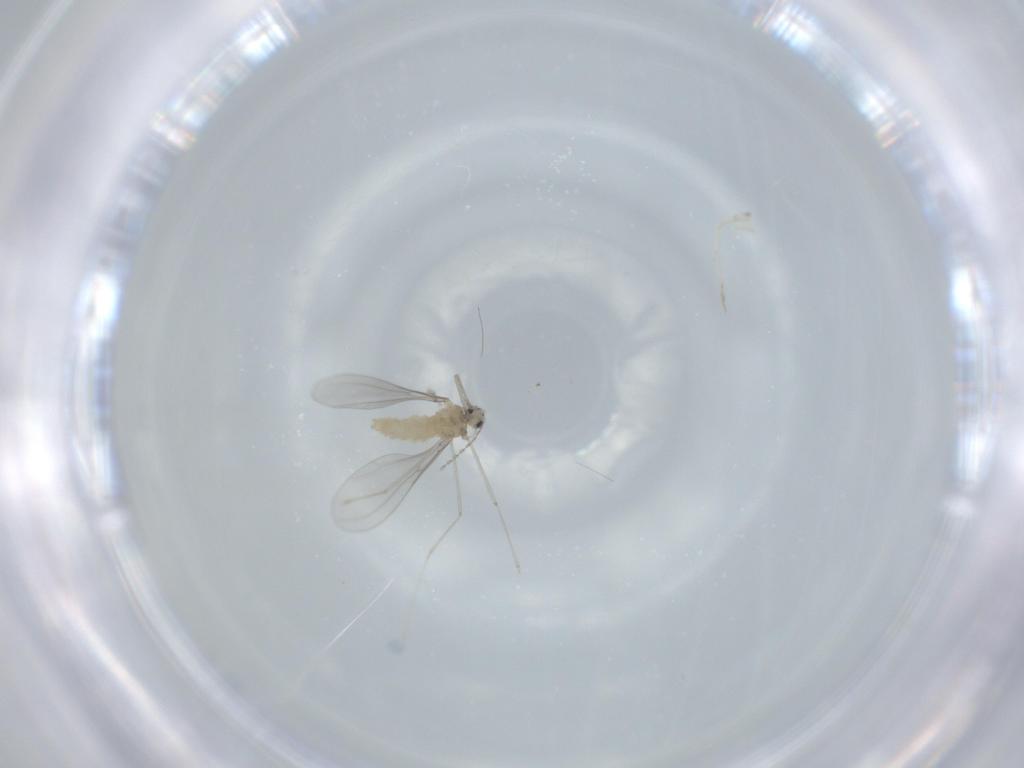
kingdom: Animalia
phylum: Arthropoda
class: Insecta
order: Diptera
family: Cecidomyiidae
